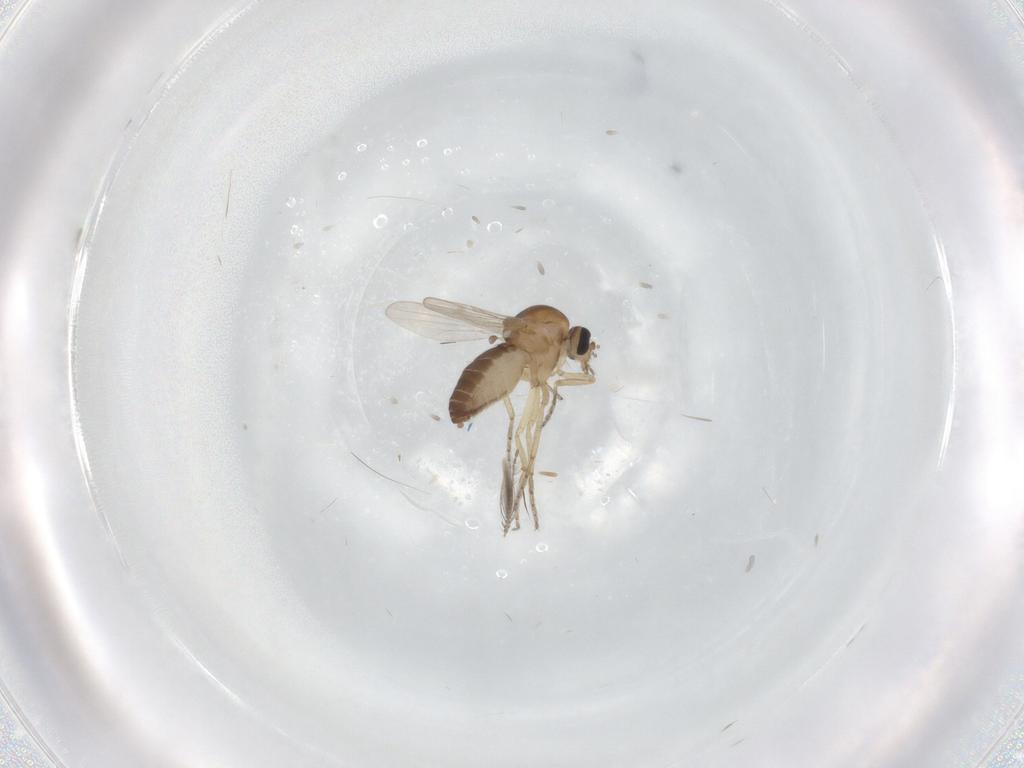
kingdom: Animalia
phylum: Arthropoda
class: Insecta
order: Diptera
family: Ceratopogonidae
